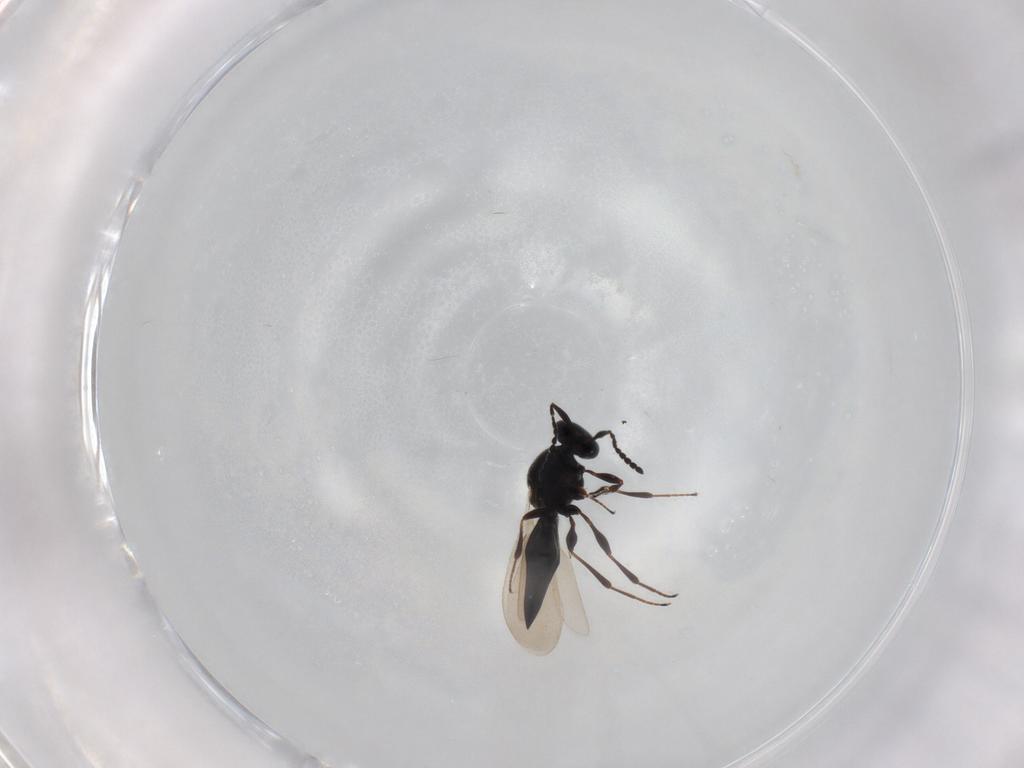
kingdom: Animalia
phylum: Arthropoda
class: Insecta
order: Hymenoptera
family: Platygastridae
